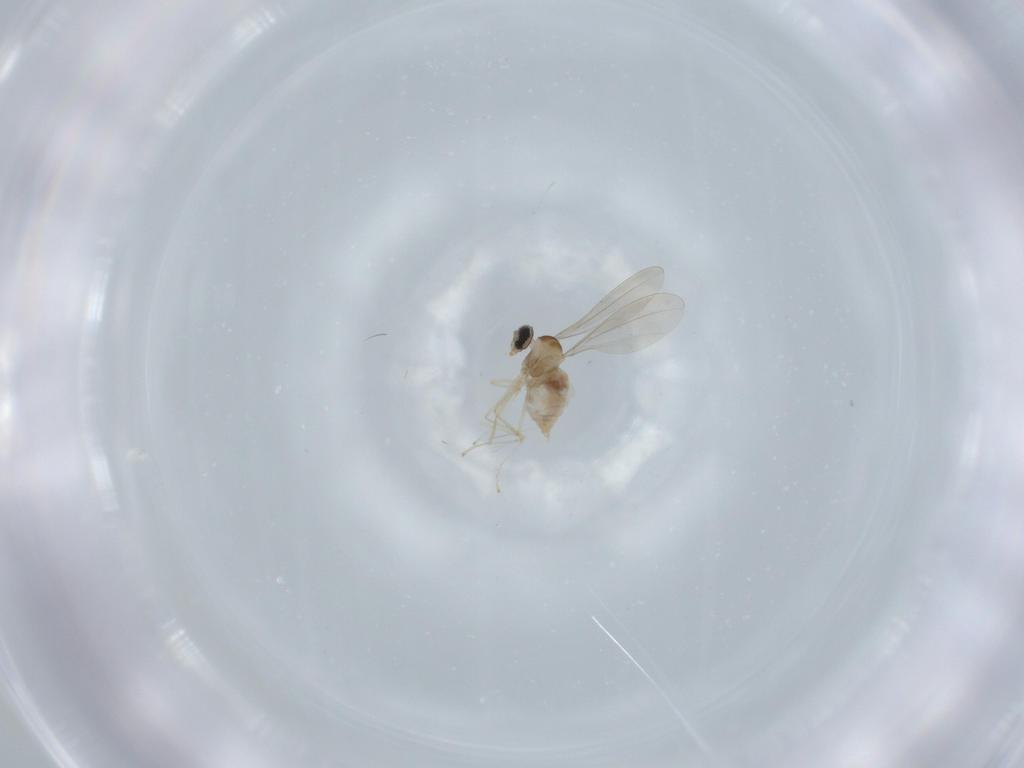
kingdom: Animalia
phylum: Arthropoda
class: Insecta
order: Diptera
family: Cecidomyiidae
